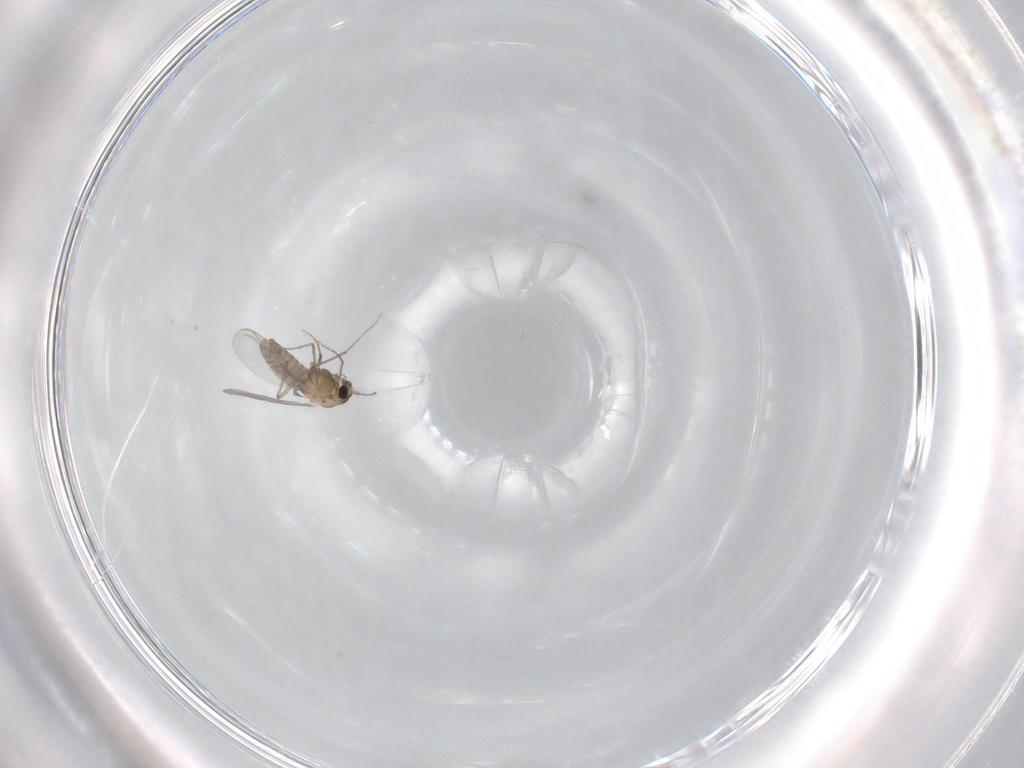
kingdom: Animalia
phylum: Arthropoda
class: Insecta
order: Diptera
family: Chironomidae
